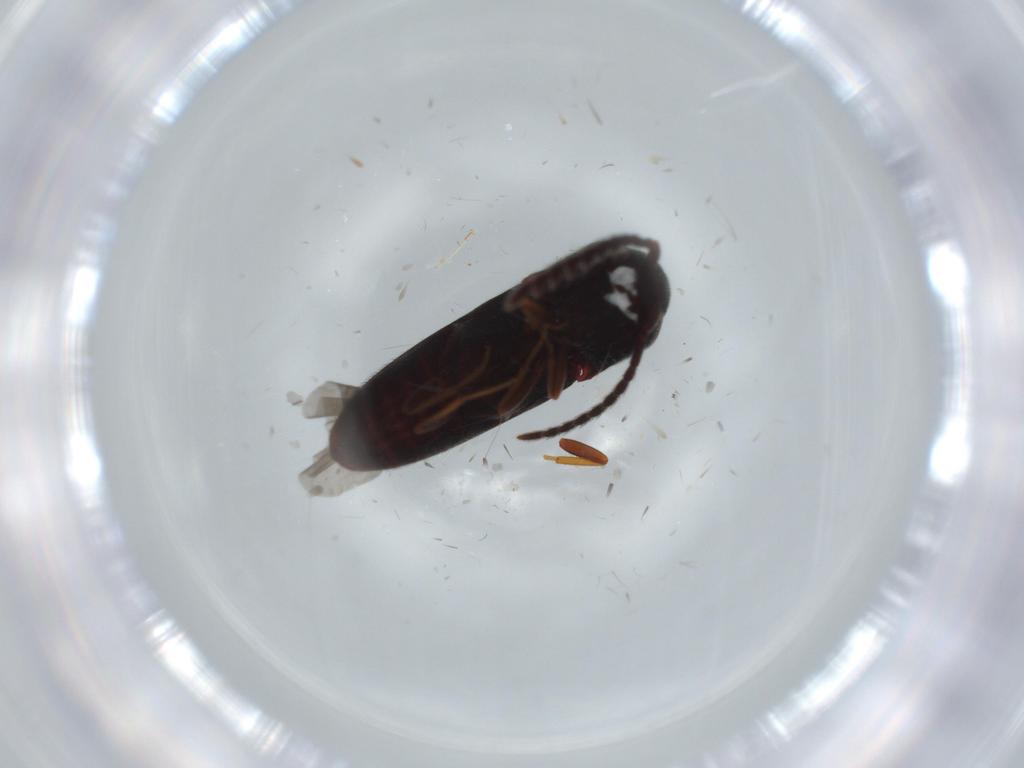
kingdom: Animalia
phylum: Arthropoda
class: Insecta
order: Coleoptera
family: Eucnemidae
